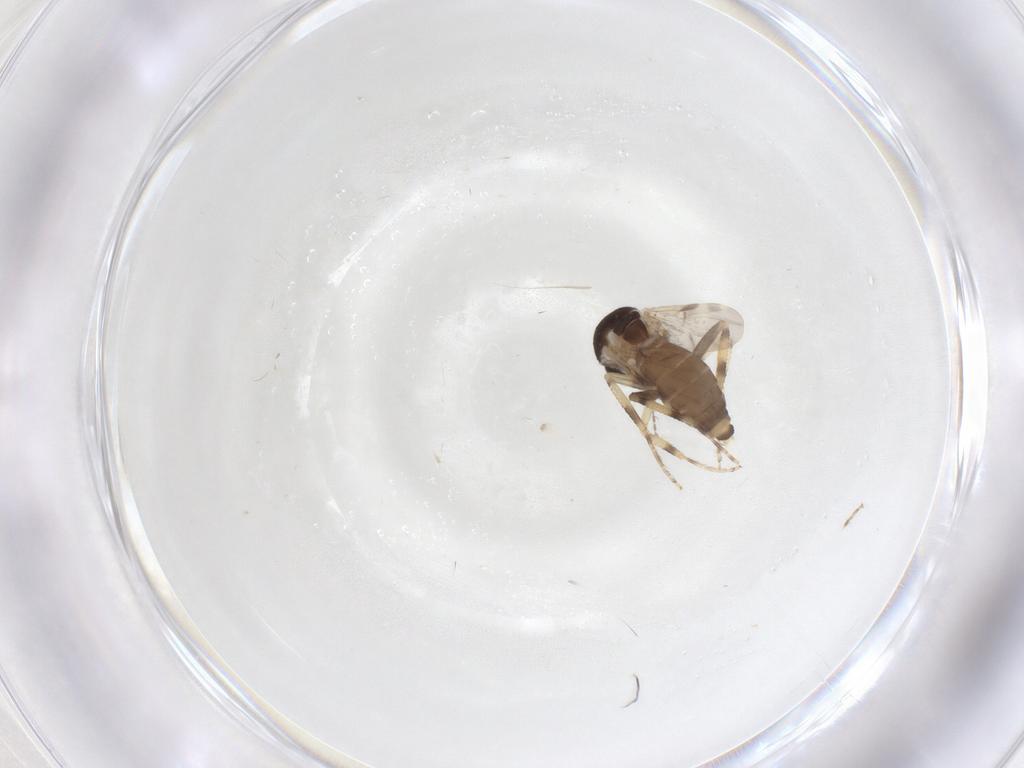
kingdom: Animalia
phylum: Arthropoda
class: Insecta
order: Diptera
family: Ceratopogonidae
